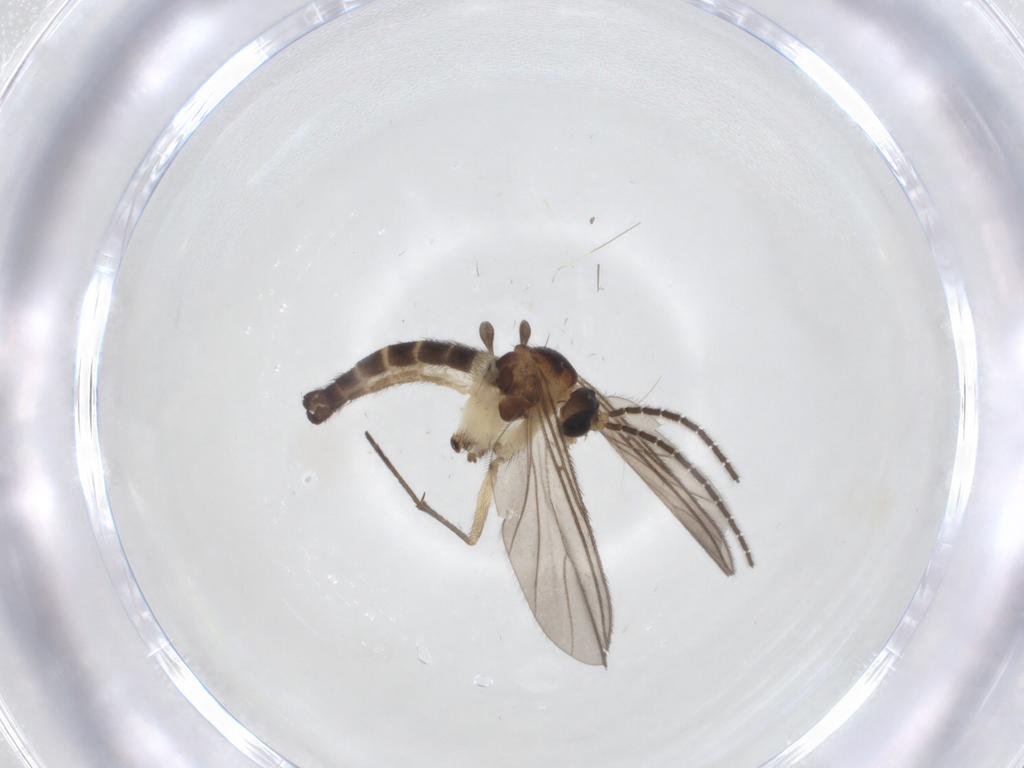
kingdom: Animalia
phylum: Arthropoda
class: Insecta
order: Diptera
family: Sciaridae
